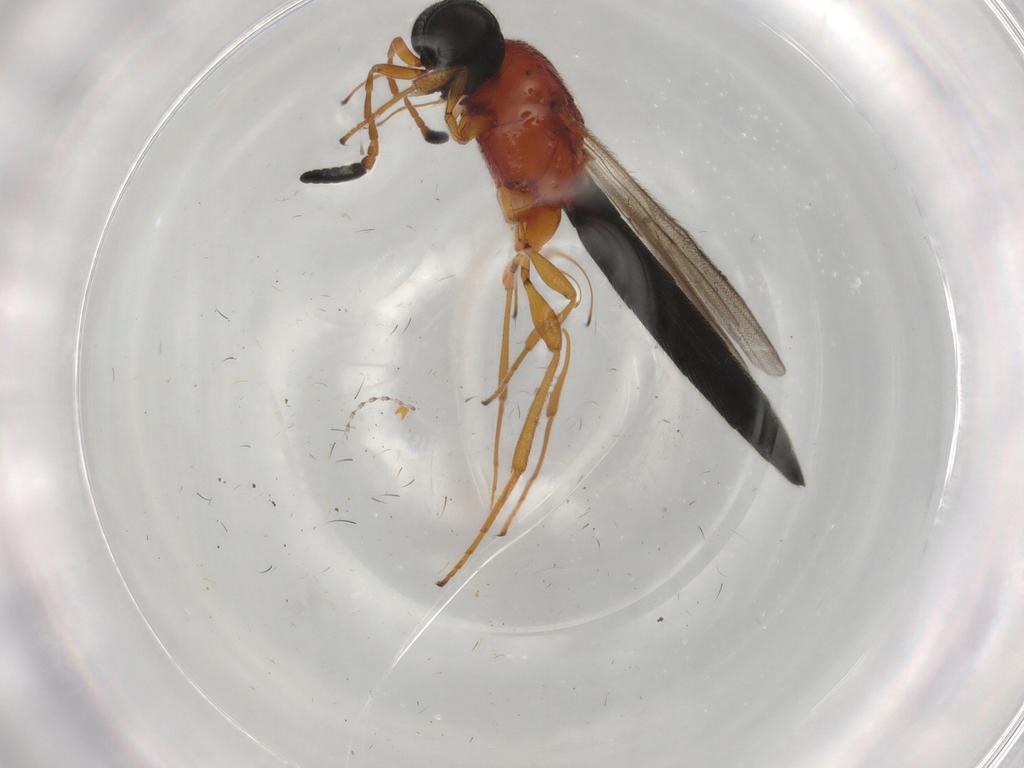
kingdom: Animalia
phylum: Arthropoda
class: Insecta
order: Hymenoptera
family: Scelionidae
